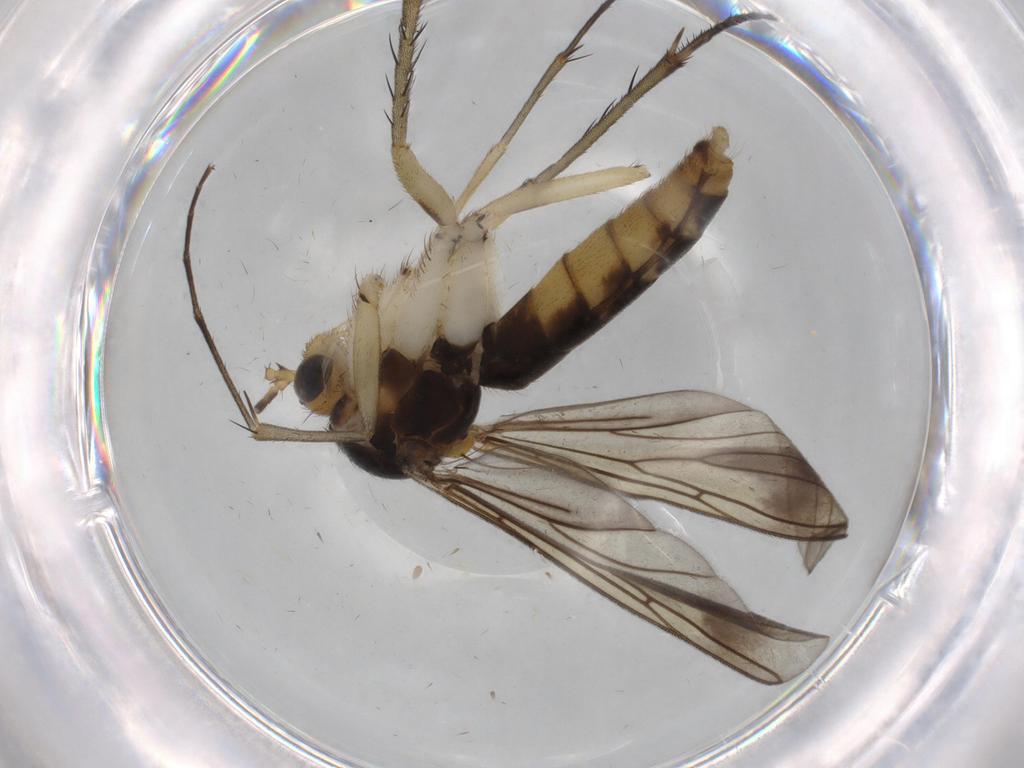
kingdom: Animalia
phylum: Arthropoda
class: Insecta
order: Diptera
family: Mycetophilidae
